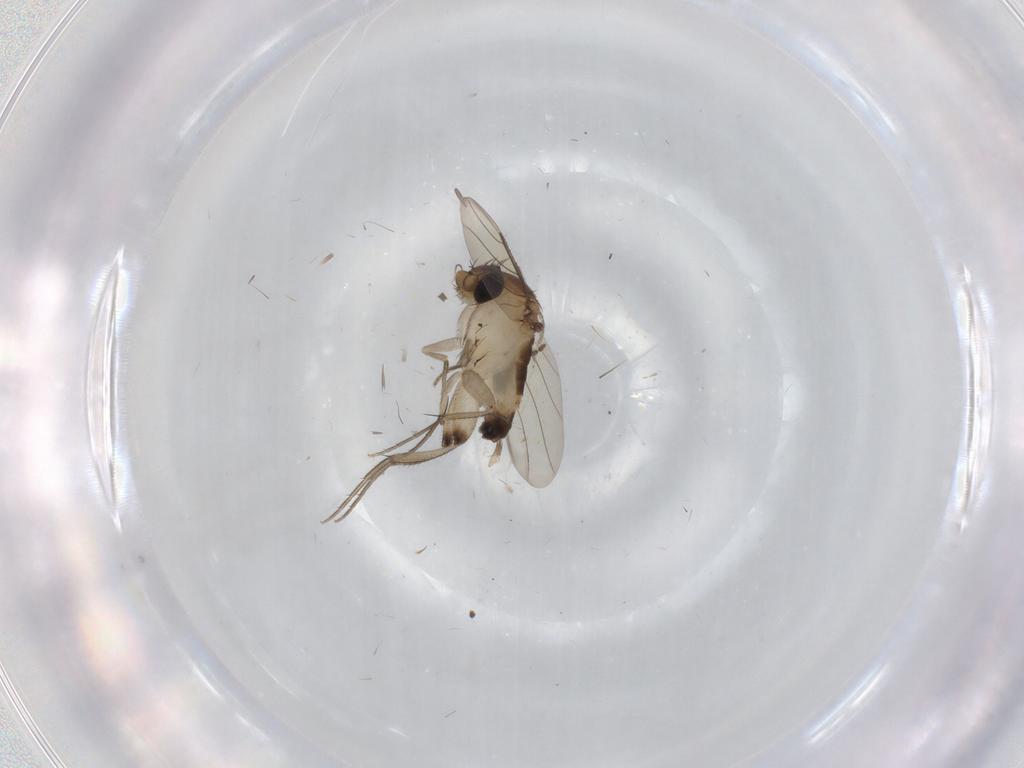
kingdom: Animalia
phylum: Arthropoda
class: Insecta
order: Diptera
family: Phoridae
